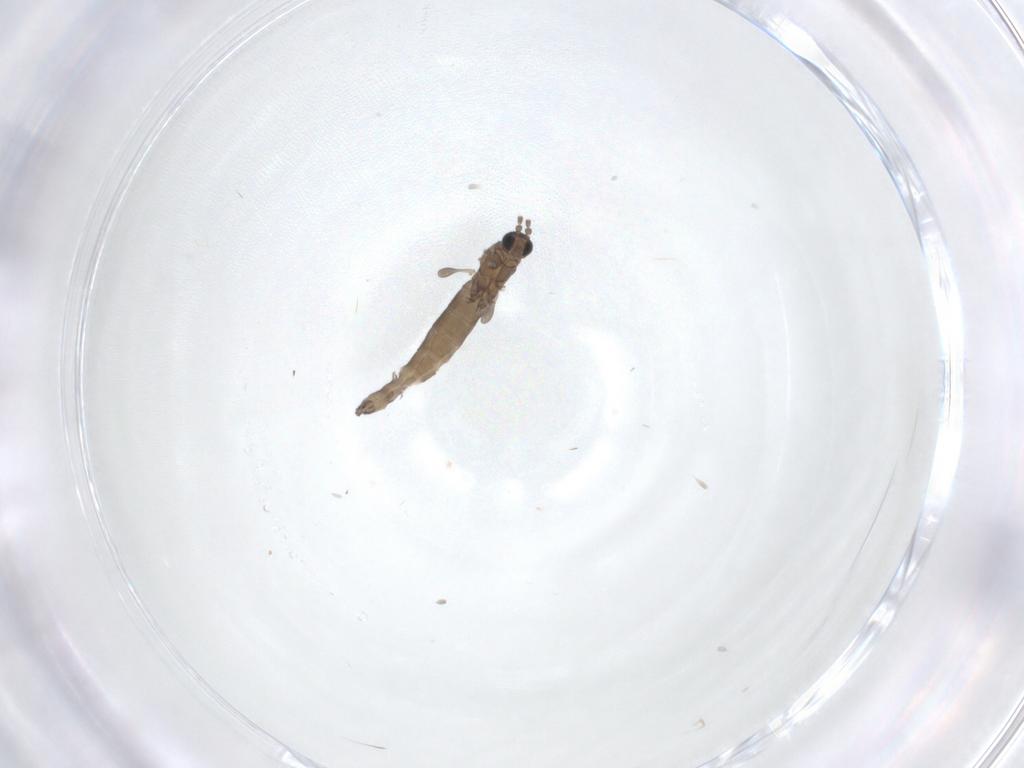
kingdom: Animalia
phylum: Arthropoda
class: Insecta
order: Diptera
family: Sciaridae
